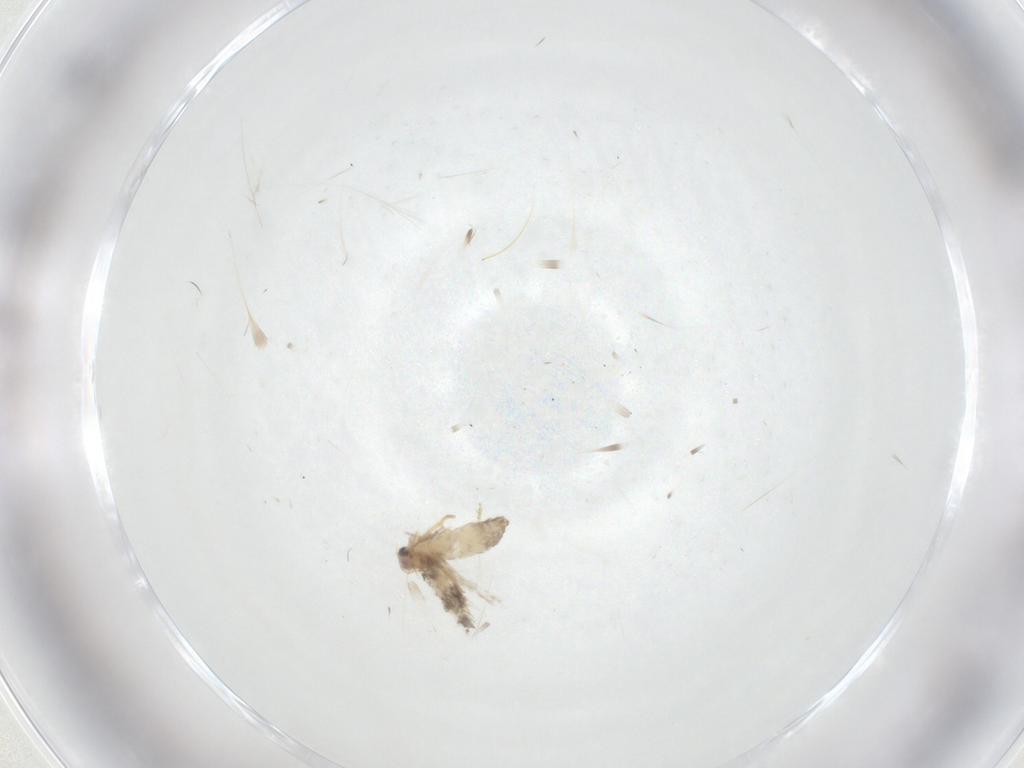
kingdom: Animalia
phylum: Arthropoda
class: Insecta
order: Lepidoptera
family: Nepticulidae
